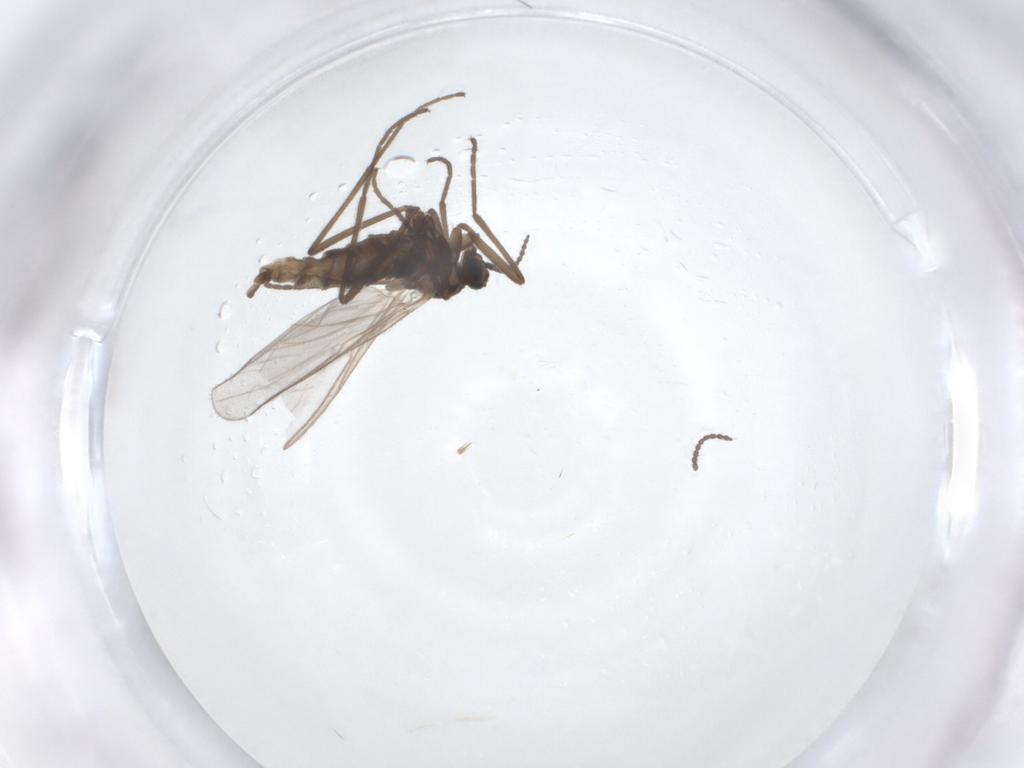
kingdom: Animalia
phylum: Arthropoda
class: Insecta
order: Diptera
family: Cecidomyiidae
